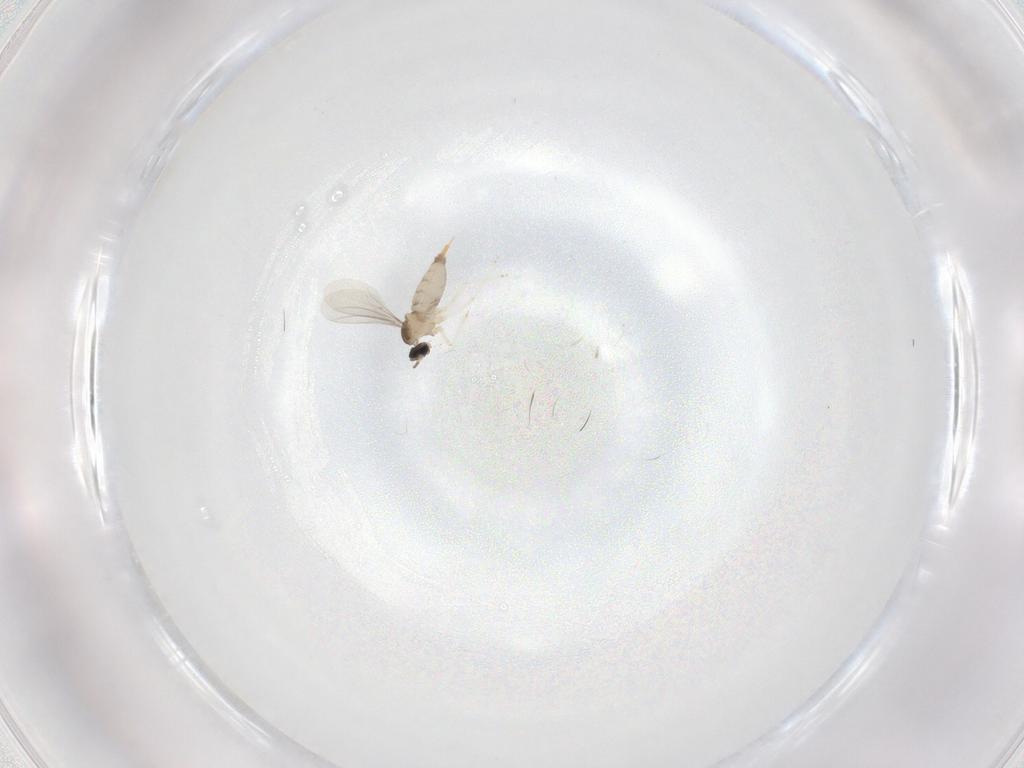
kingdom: Animalia
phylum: Arthropoda
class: Insecta
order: Diptera
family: Cecidomyiidae
